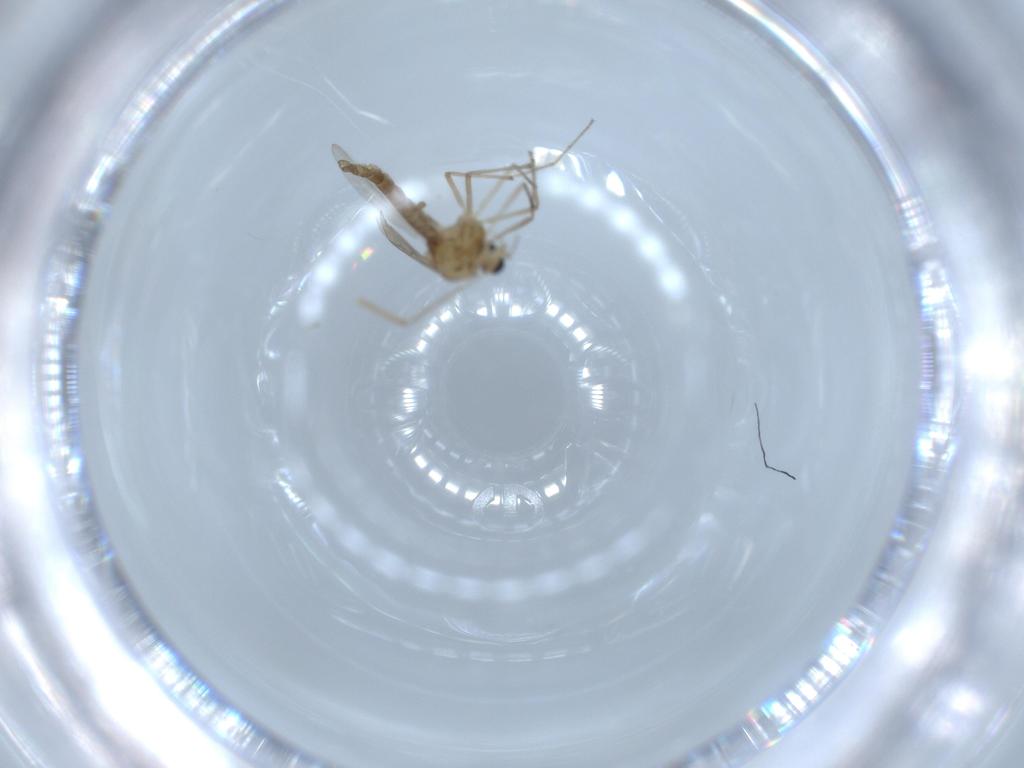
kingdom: Animalia
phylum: Arthropoda
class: Insecta
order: Diptera
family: Chironomidae
